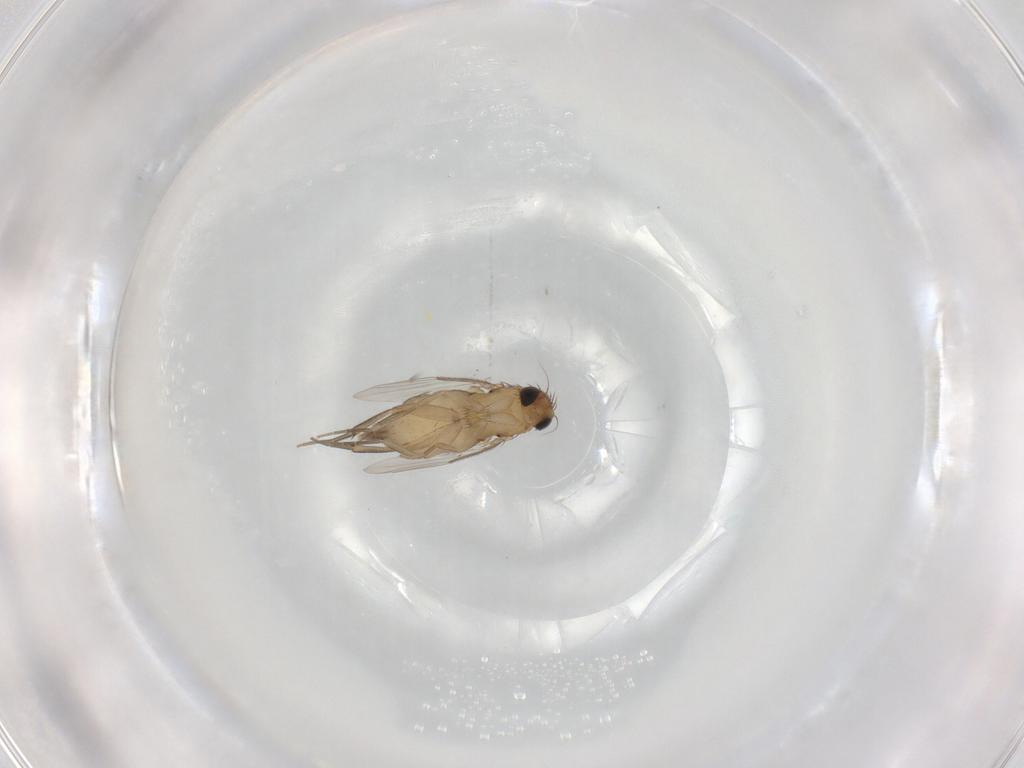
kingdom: Animalia
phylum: Arthropoda
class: Insecta
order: Diptera
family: Phoridae
